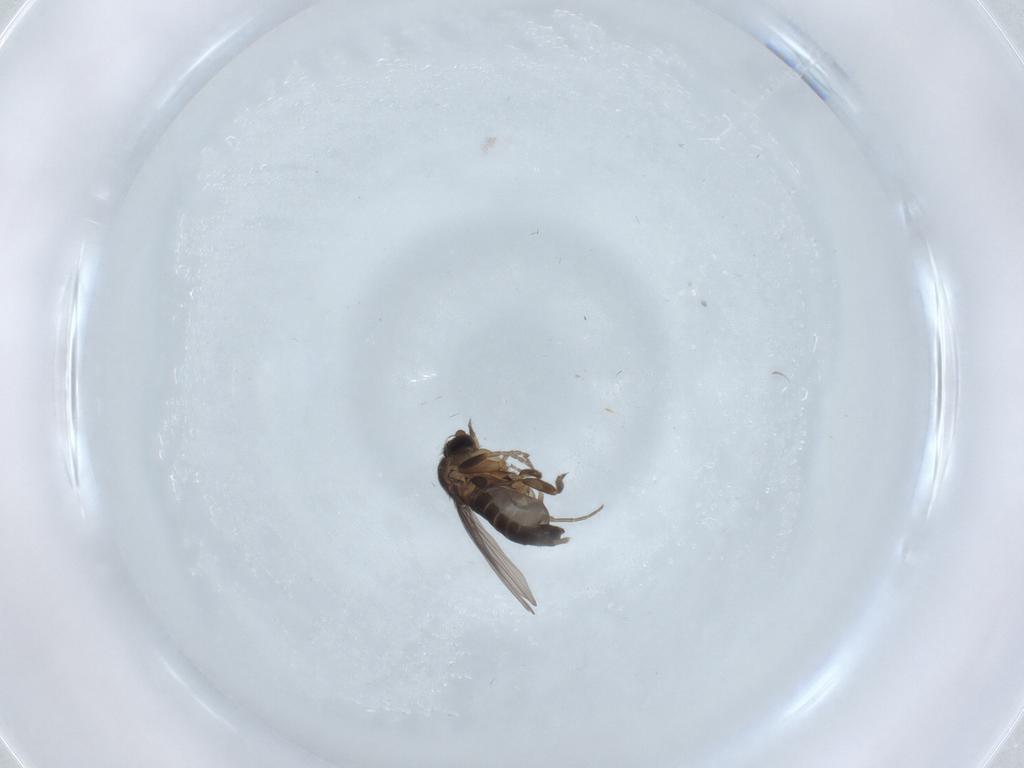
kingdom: Animalia
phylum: Arthropoda
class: Insecta
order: Diptera
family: Phoridae
